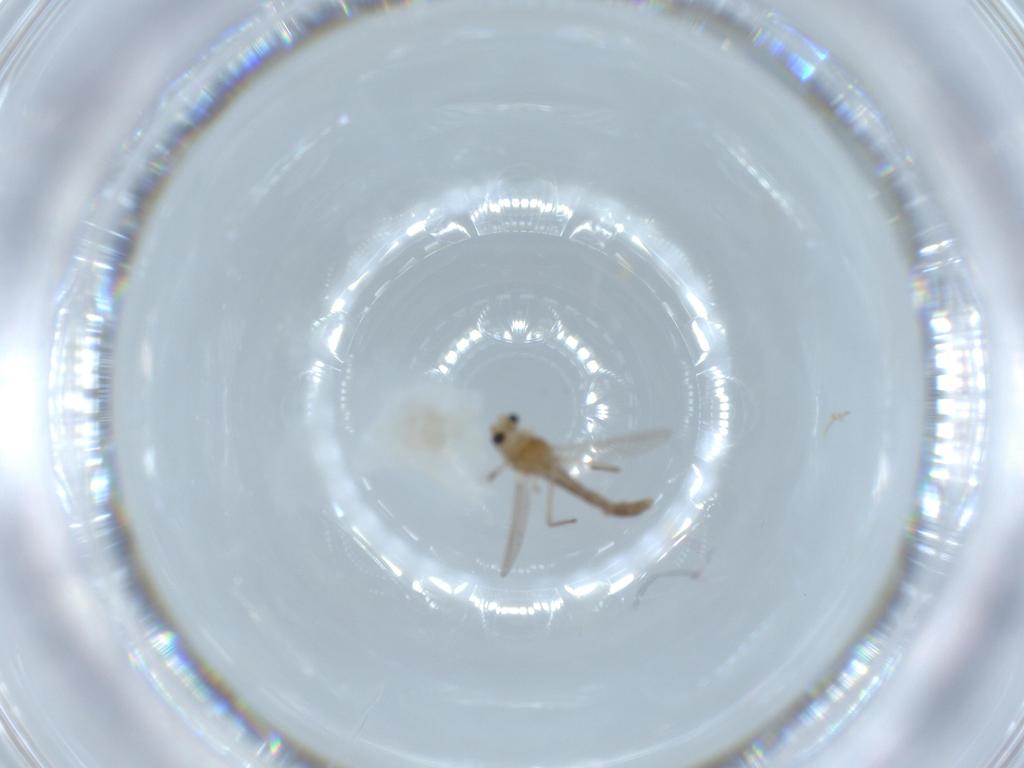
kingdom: Animalia
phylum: Arthropoda
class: Insecta
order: Diptera
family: Chironomidae
